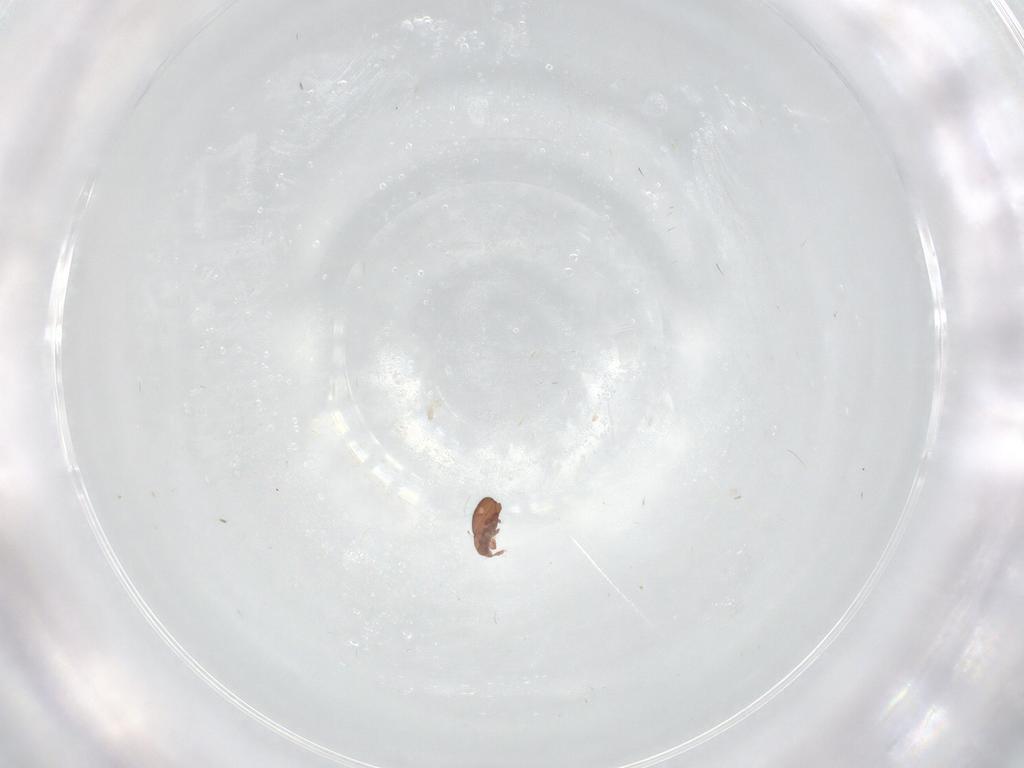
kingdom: Animalia
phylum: Arthropoda
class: Arachnida
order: Sarcoptiformes
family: Eremaeidae
